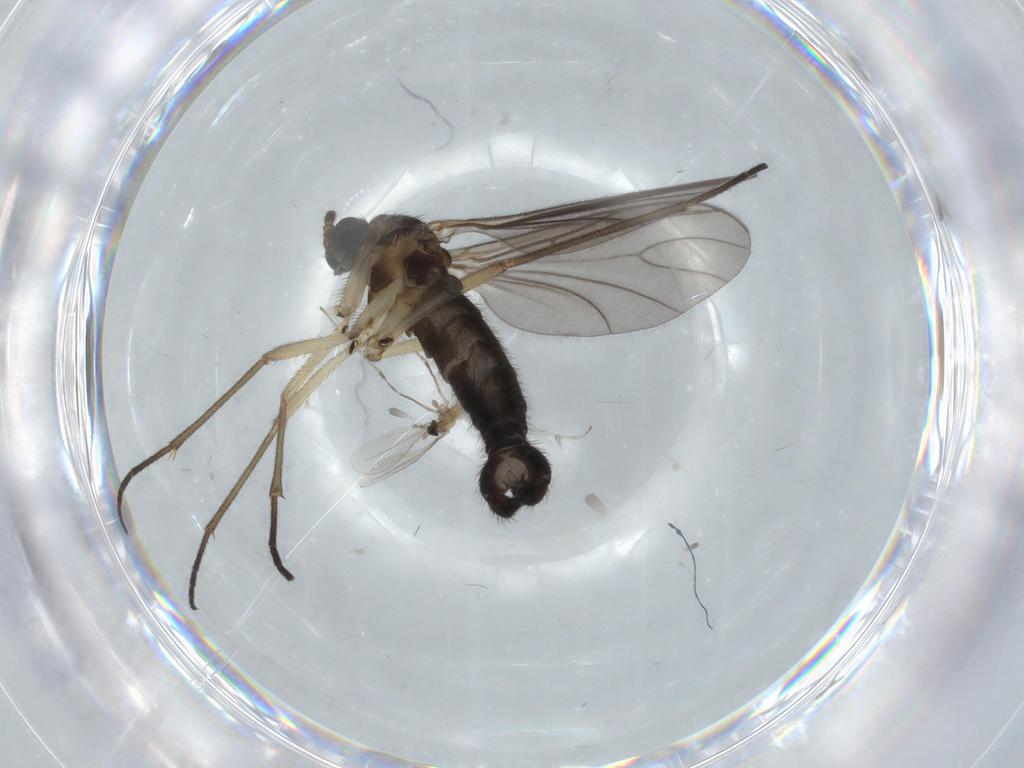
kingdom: Animalia
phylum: Arthropoda
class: Insecta
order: Diptera
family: Sciaridae
